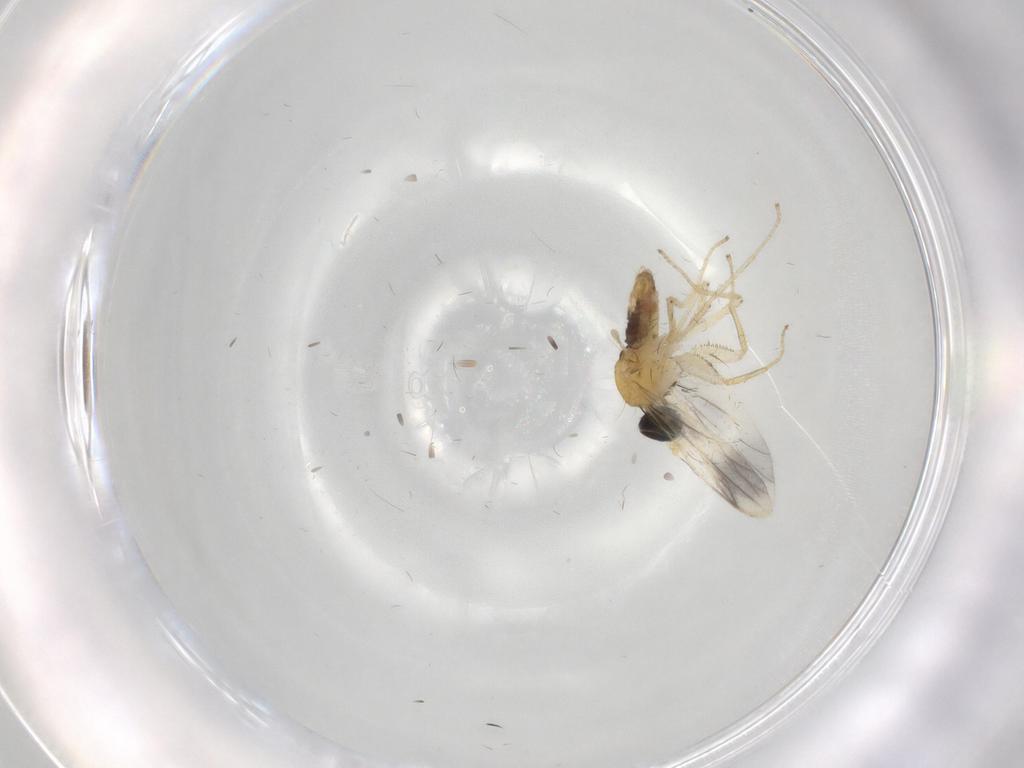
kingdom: Animalia
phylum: Arthropoda
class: Insecta
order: Diptera
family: Empididae
